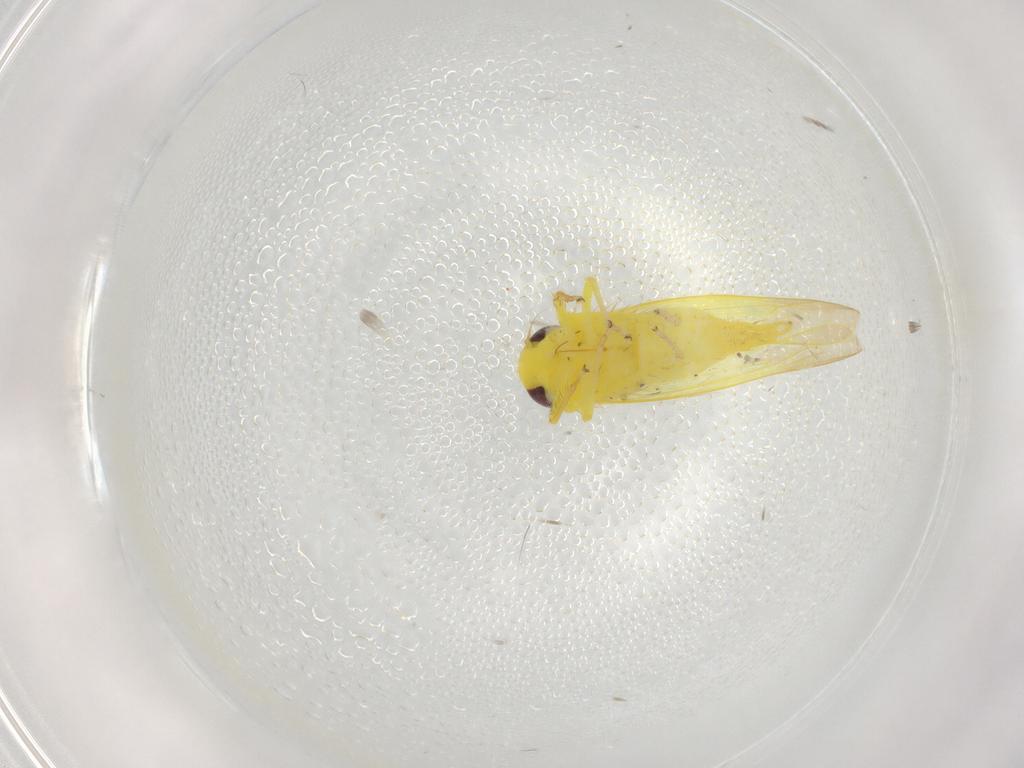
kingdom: Animalia
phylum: Arthropoda
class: Insecta
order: Hemiptera
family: Cicadellidae
